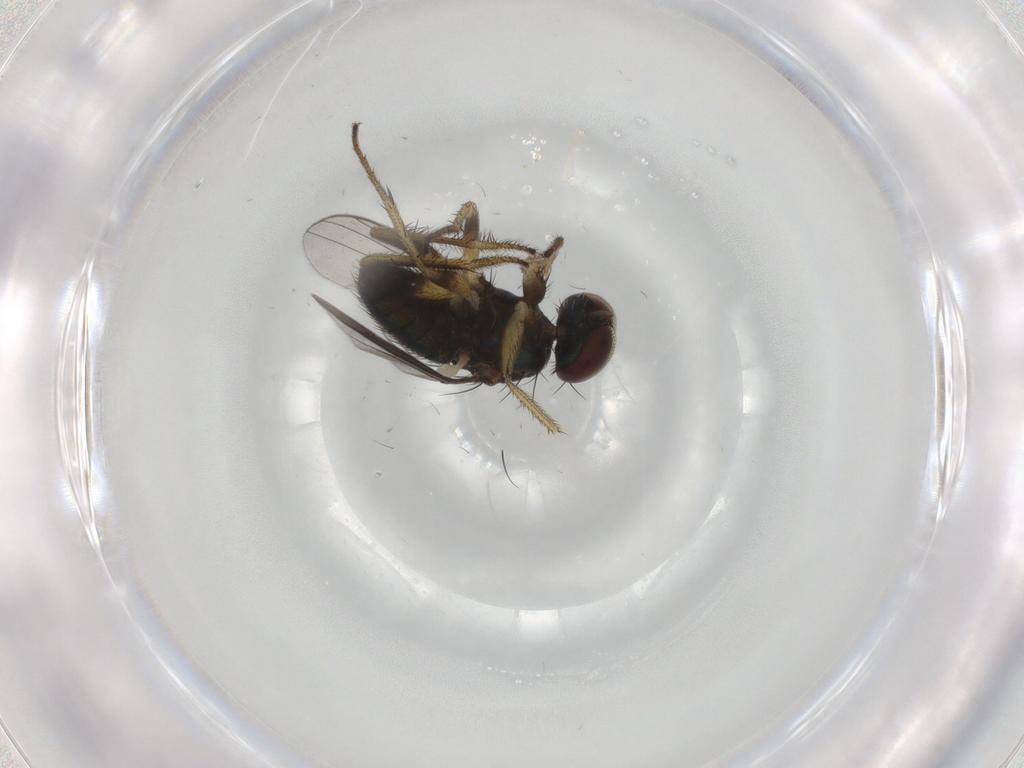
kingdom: Animalia
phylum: Arthropoda
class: Insecta
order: Diptera
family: Dolichopodidae
